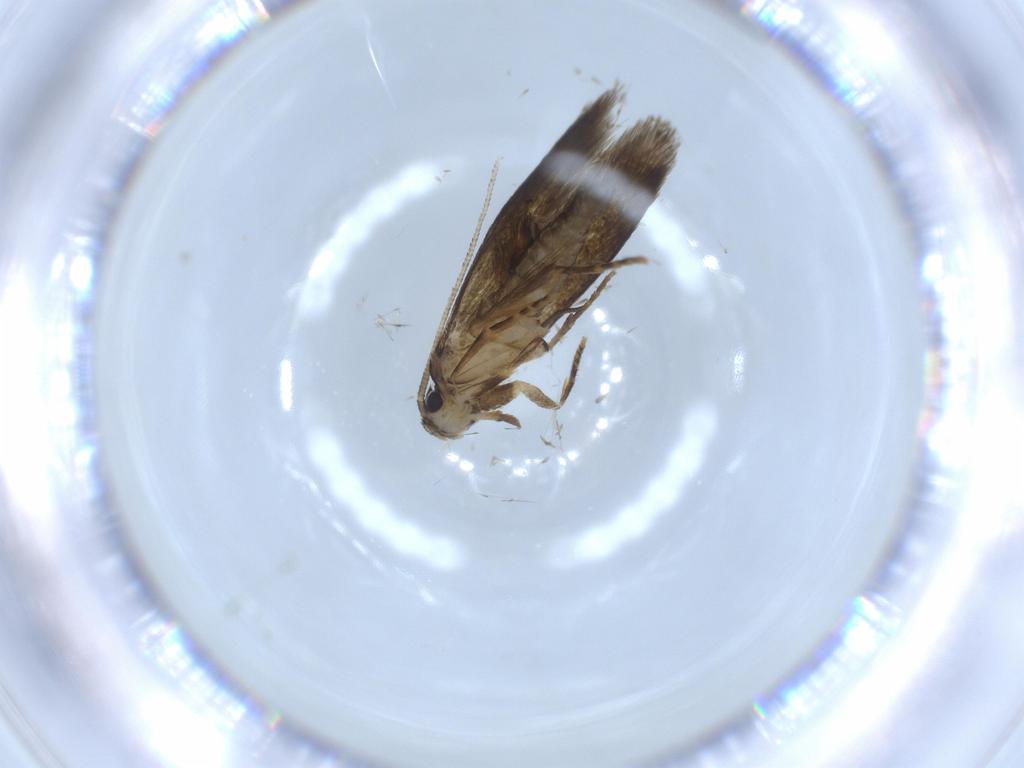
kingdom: Animalia
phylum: Arthropoda
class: Insecta
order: Lepidoptera
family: Tineidae
